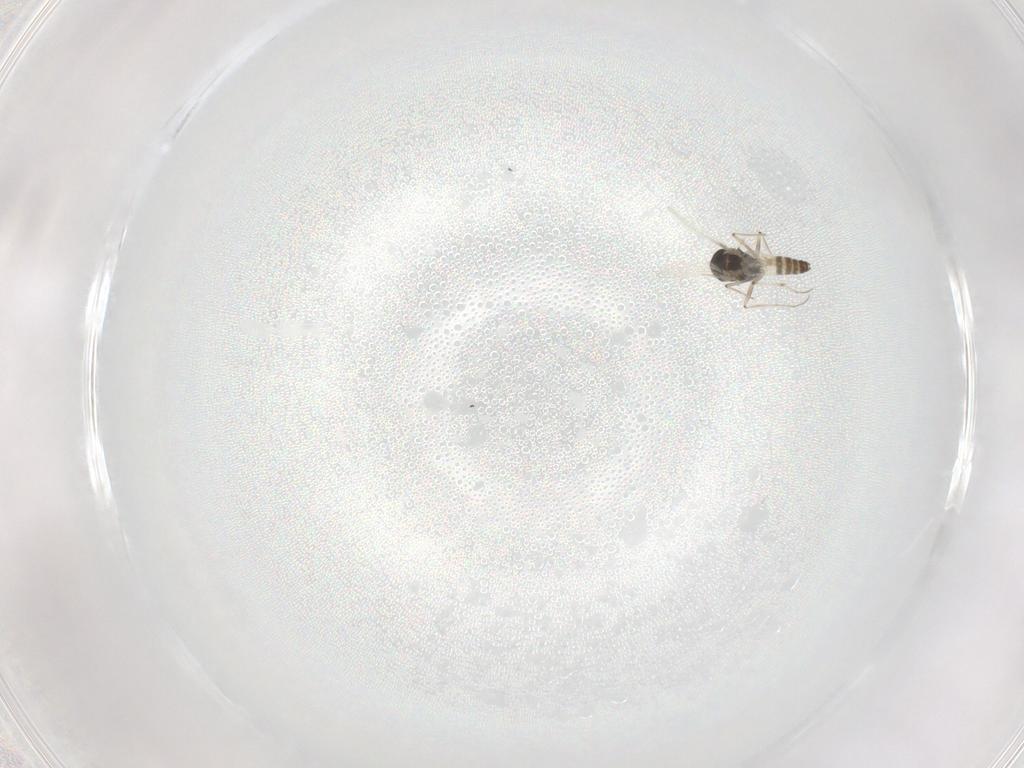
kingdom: Animalia
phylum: Arthropoda
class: Insecta
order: Diptera
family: Chironomidae
